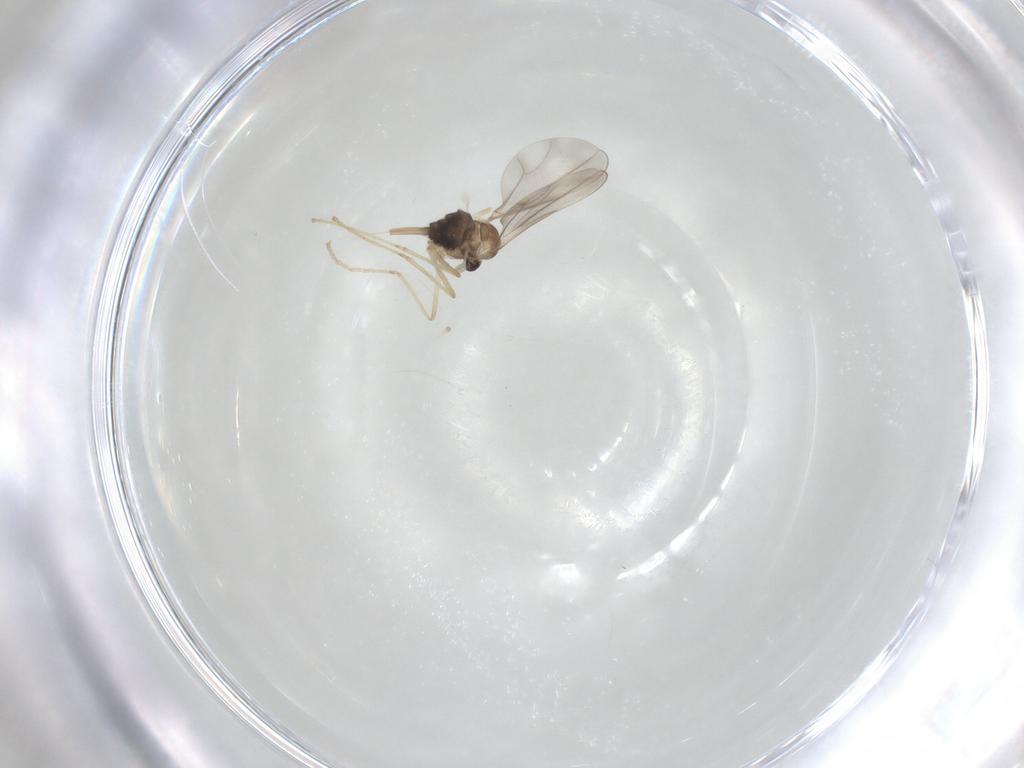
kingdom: Animalia
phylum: Arthropoda
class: Insecta
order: Diptera
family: Cecidomyiidae
